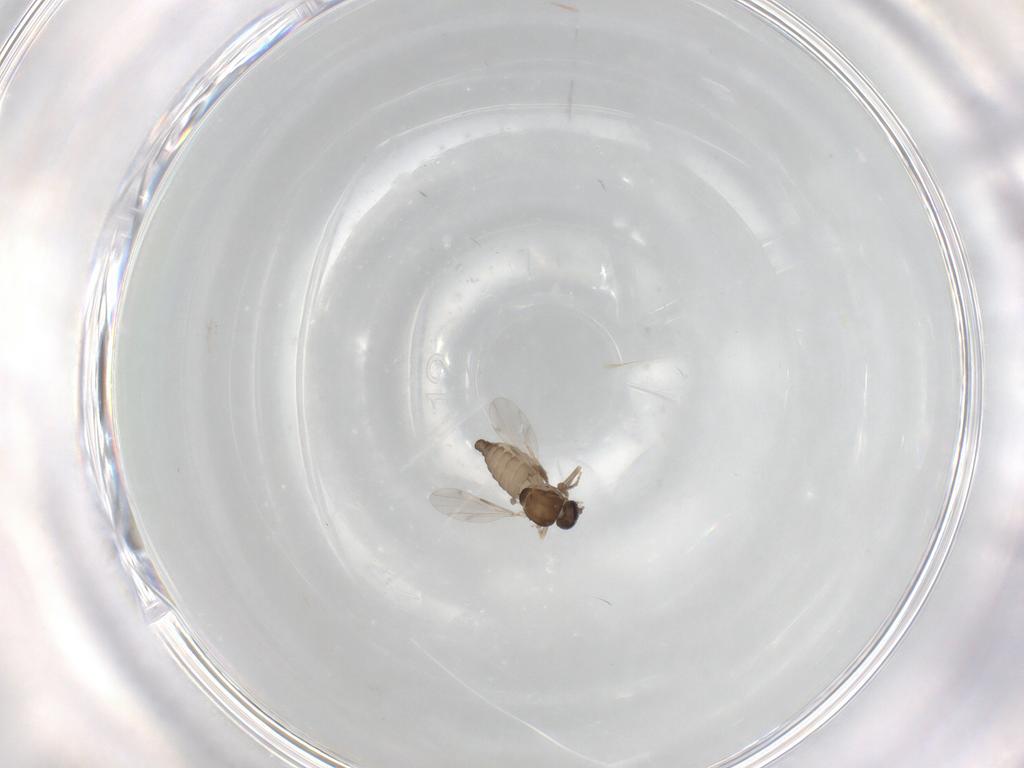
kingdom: Animalia
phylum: Arthropoda
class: Insecta
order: Diptera
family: Ceratopogonidae
